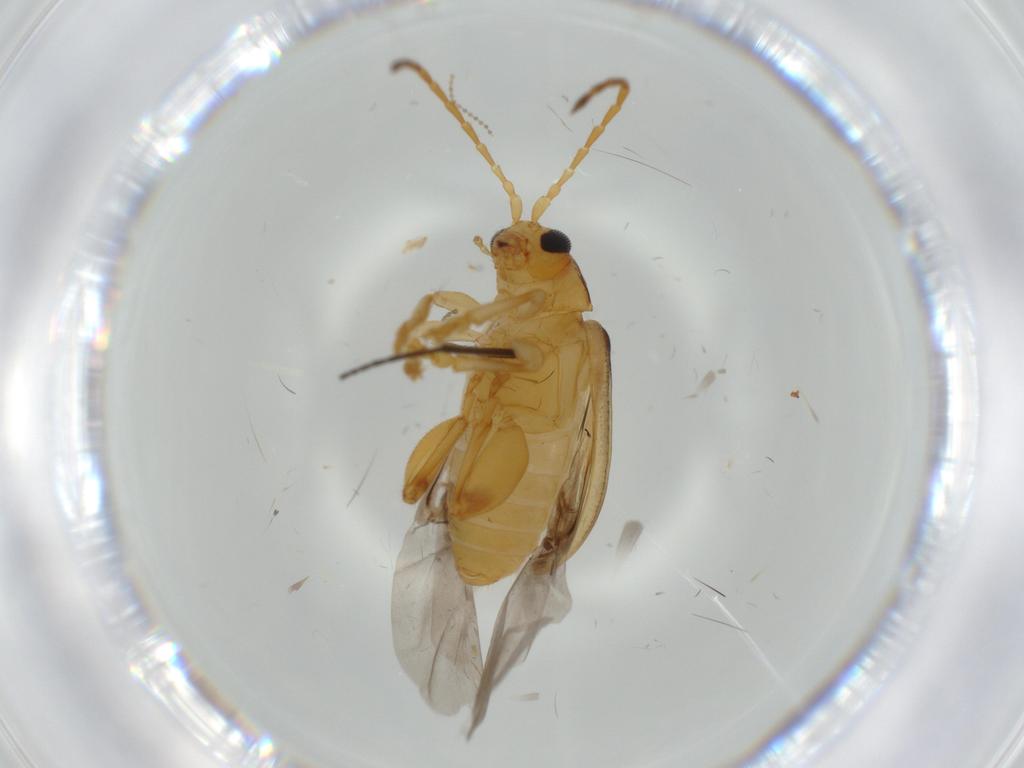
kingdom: Animalia
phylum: Arthropoda
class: Insecta
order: Coleoptera
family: Chrysomelidae
